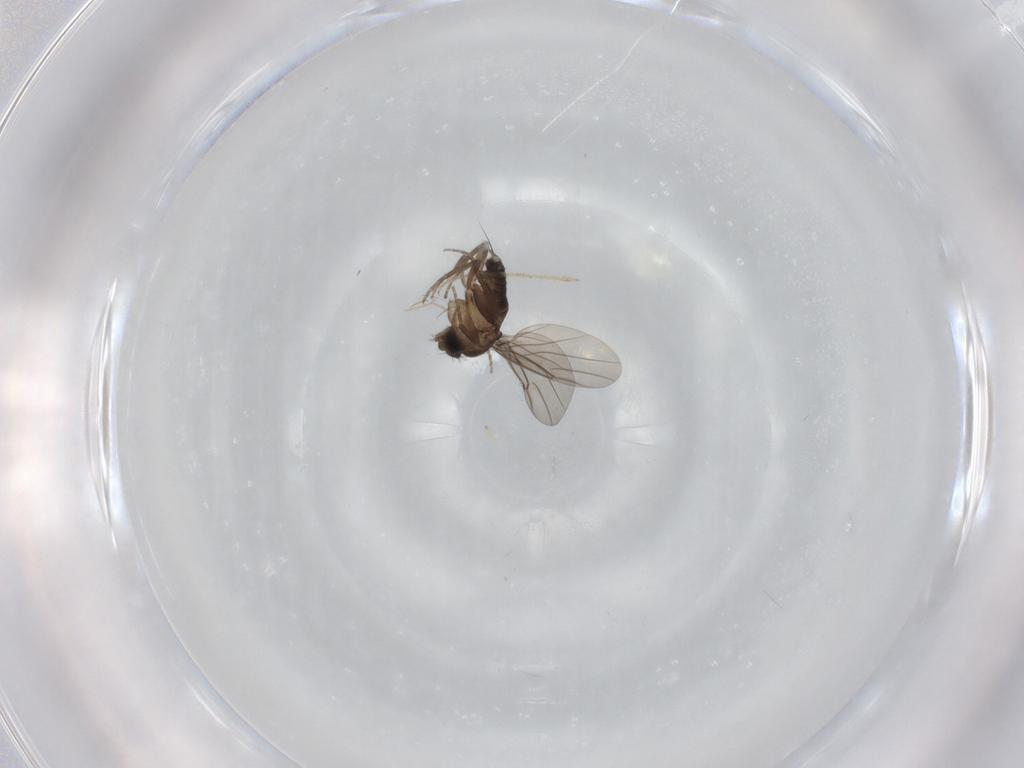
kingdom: Animalia
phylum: Arthropoda
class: Insecta
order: Diptera
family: Phoridae
